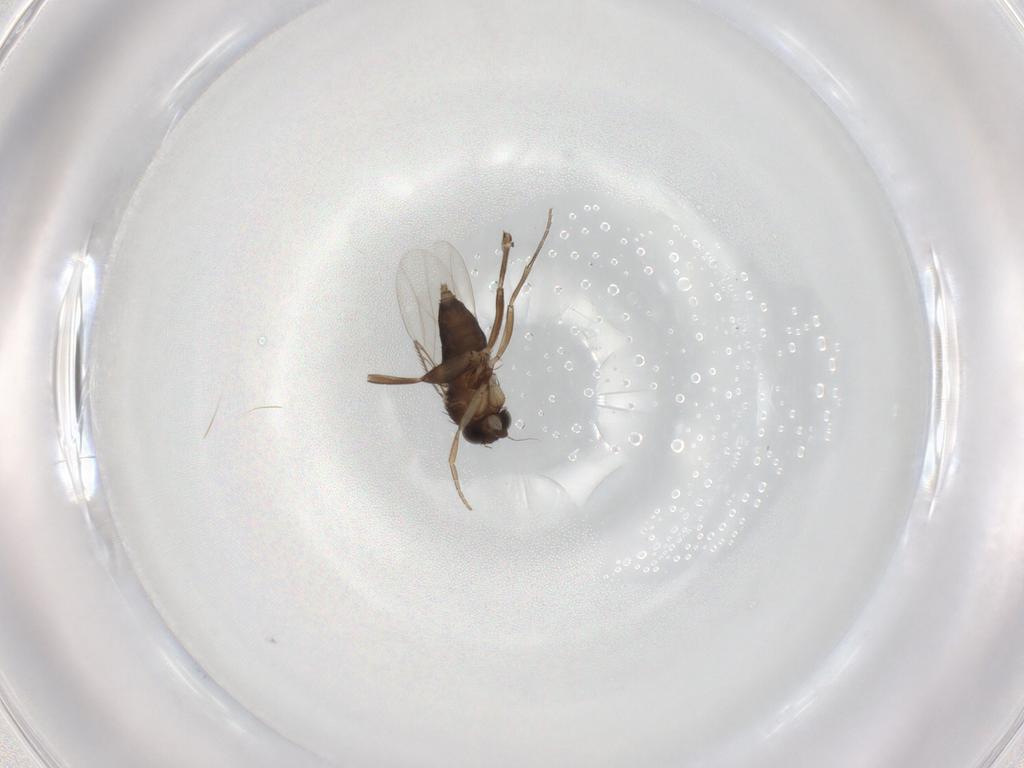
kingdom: Animalia
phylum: Arthropoda
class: Insecta
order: Diptera
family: Phoridae
